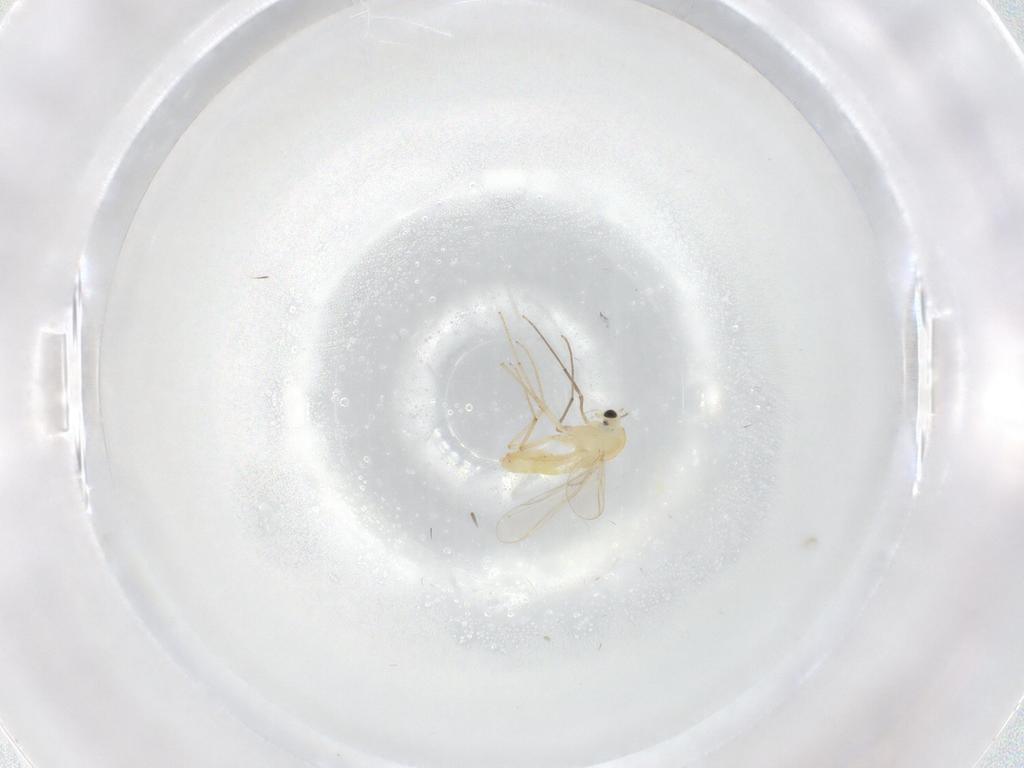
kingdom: Animalia
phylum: Arthropoda
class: Insecta
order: Diptera
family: Chironomidae
